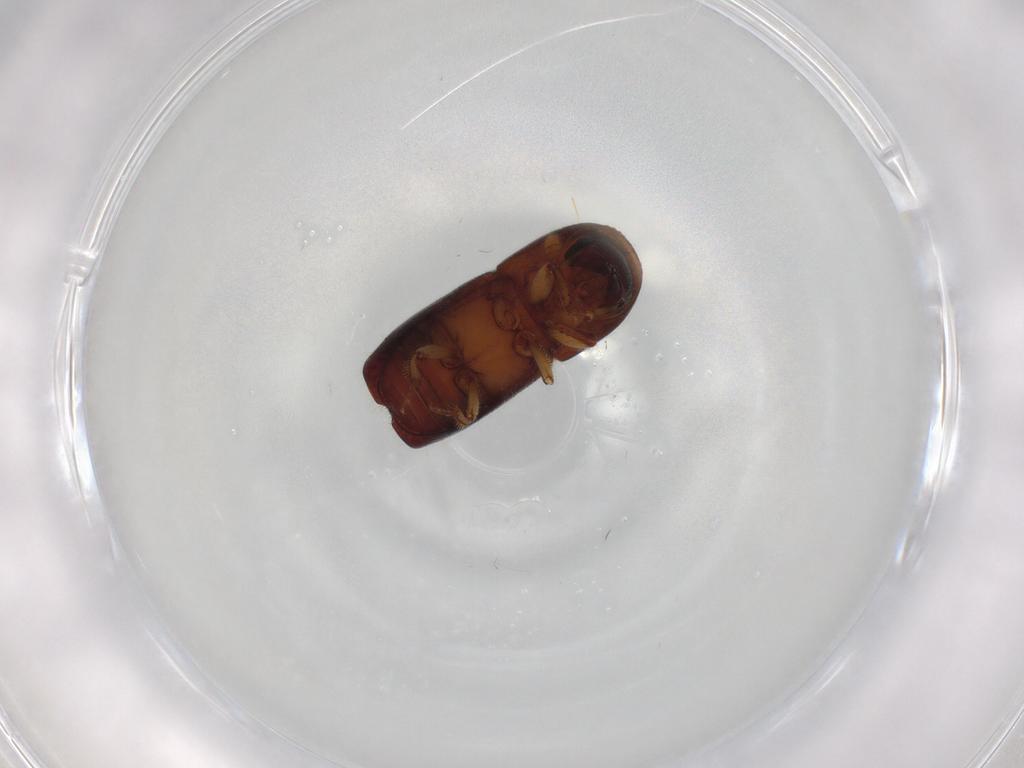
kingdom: Animalia
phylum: Arthropoda
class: Insecta
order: Coleoptera
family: Curculionidae
